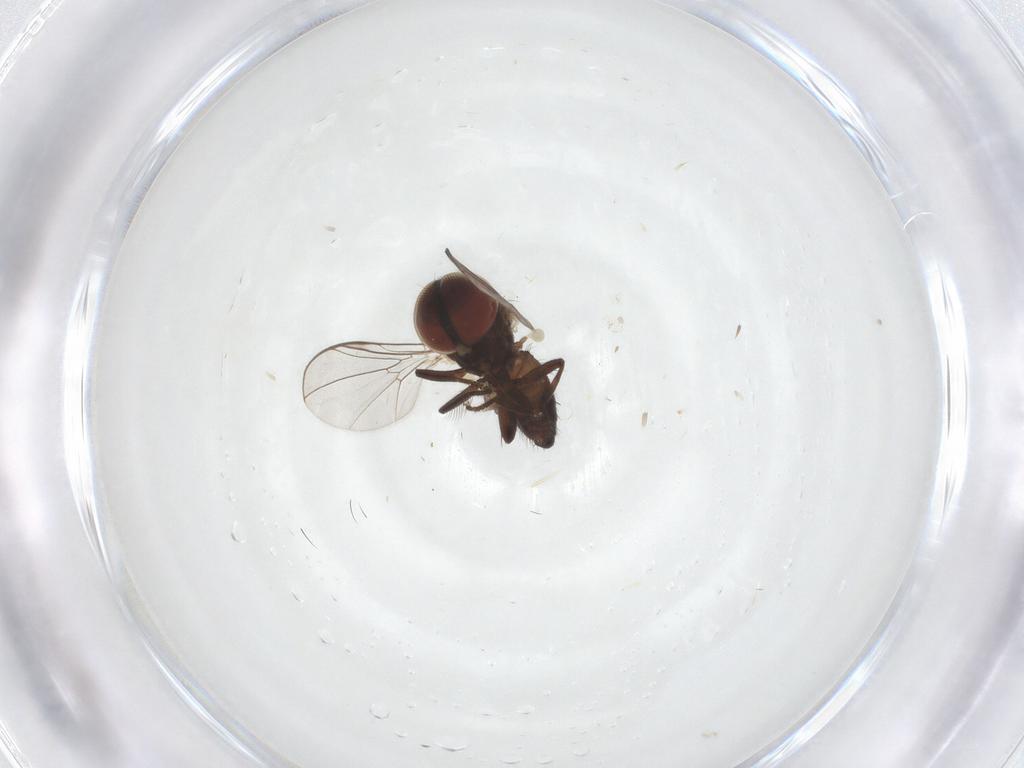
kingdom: Animalia
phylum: Arthropoda
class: Insecta
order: Diptera
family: Pipunculidae
